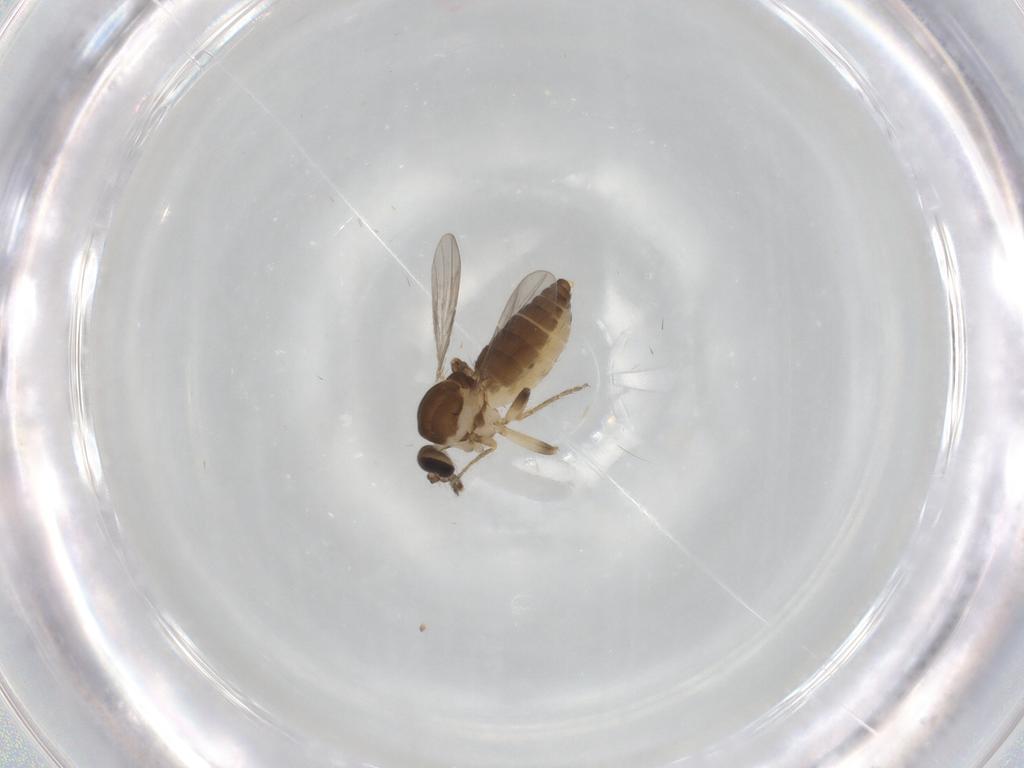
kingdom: Animalia
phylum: Arthropoda
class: Insecta
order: Diptera
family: Ceratopogonidae
